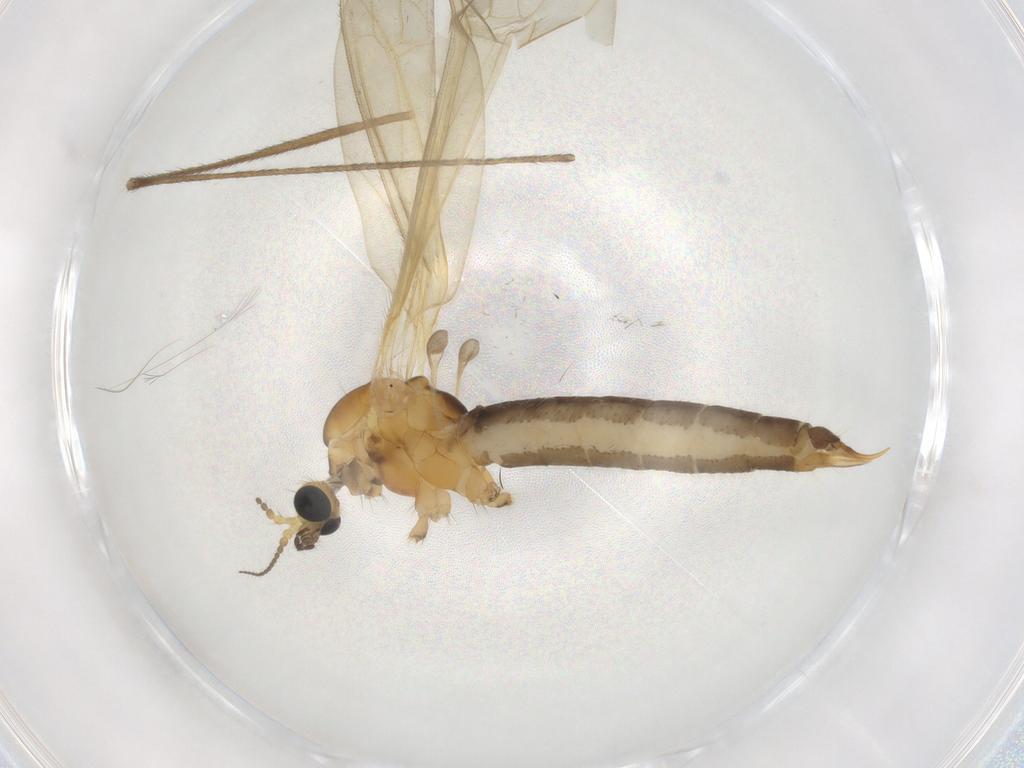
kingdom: Animalia
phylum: Arthropoda
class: Insecta
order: Diptera
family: Limoniidae
